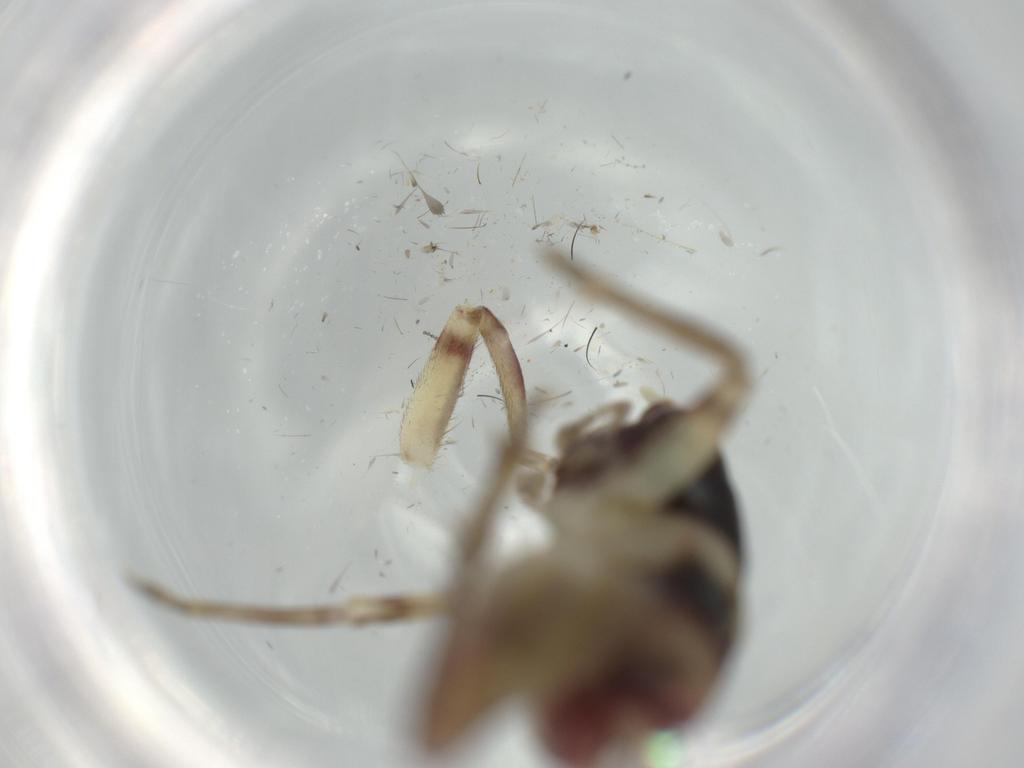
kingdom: Animalia
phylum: Arthropoda
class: Insecta
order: Orthoptera
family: Trigonidiidae
